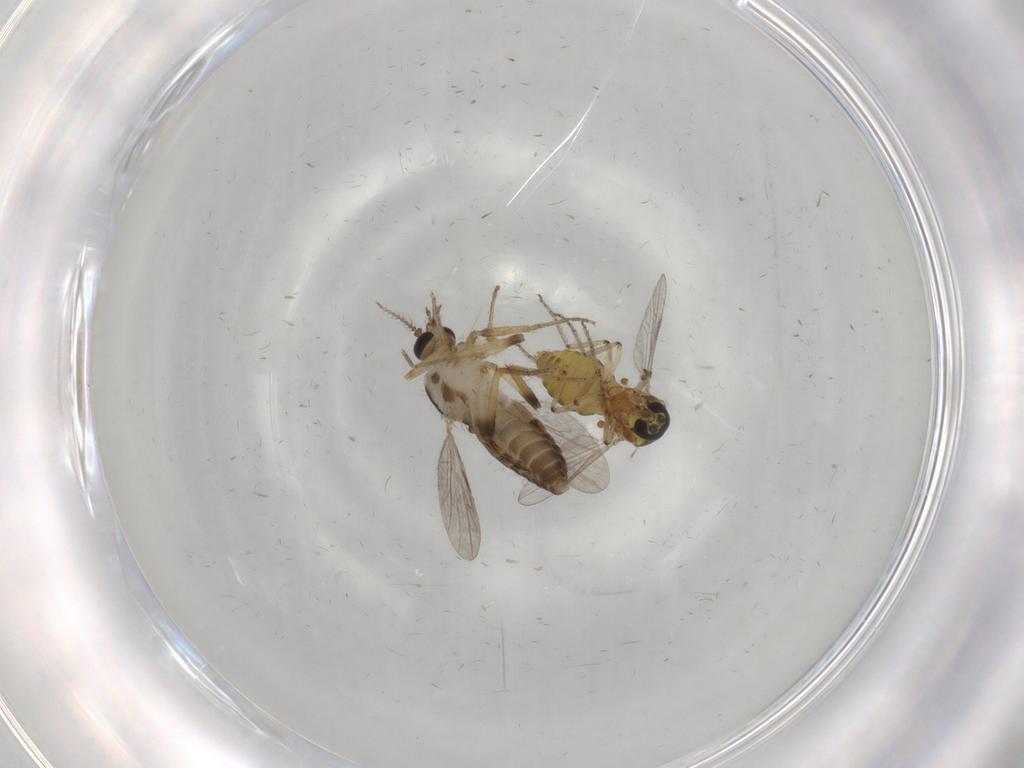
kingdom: Animalia
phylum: Arthropoda
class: Insecta
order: Diptera
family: Ceratopogonidae
